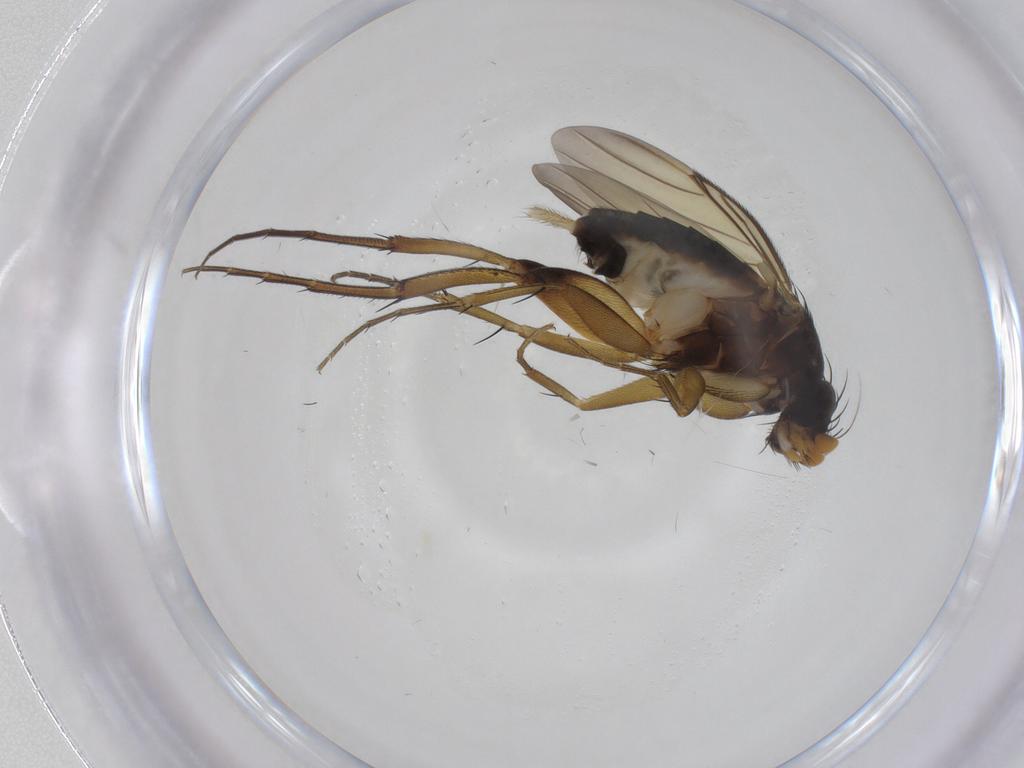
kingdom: Animalia
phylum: Arthropoda
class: Insecta
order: Diptera
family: Phoridae
